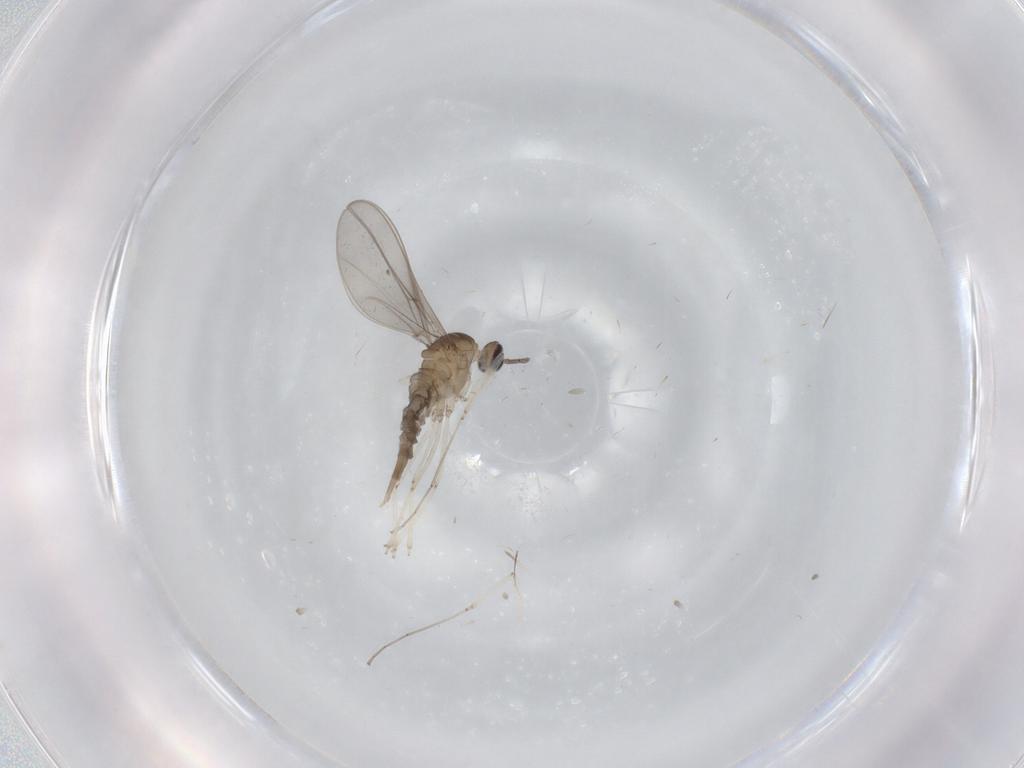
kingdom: Animalia
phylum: Arthropoda
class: Insecta
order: Diptera
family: Cecidomyiidae
